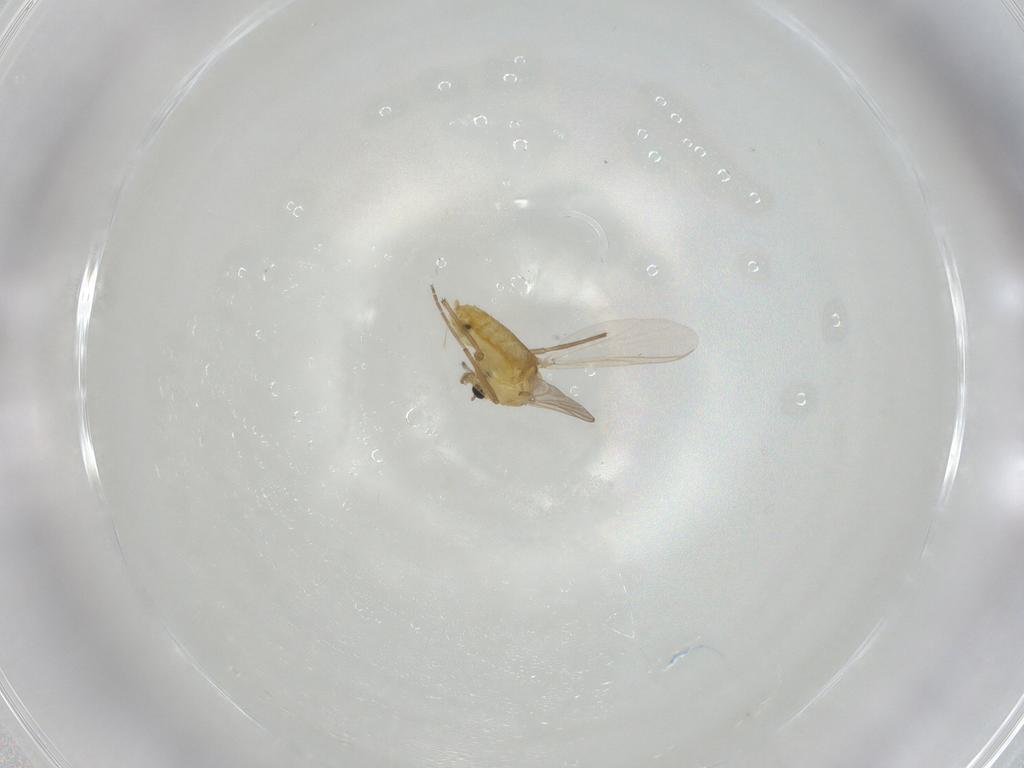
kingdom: Animalia
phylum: Arthropoda
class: Insecta
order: Diptera
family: Chironomidae
